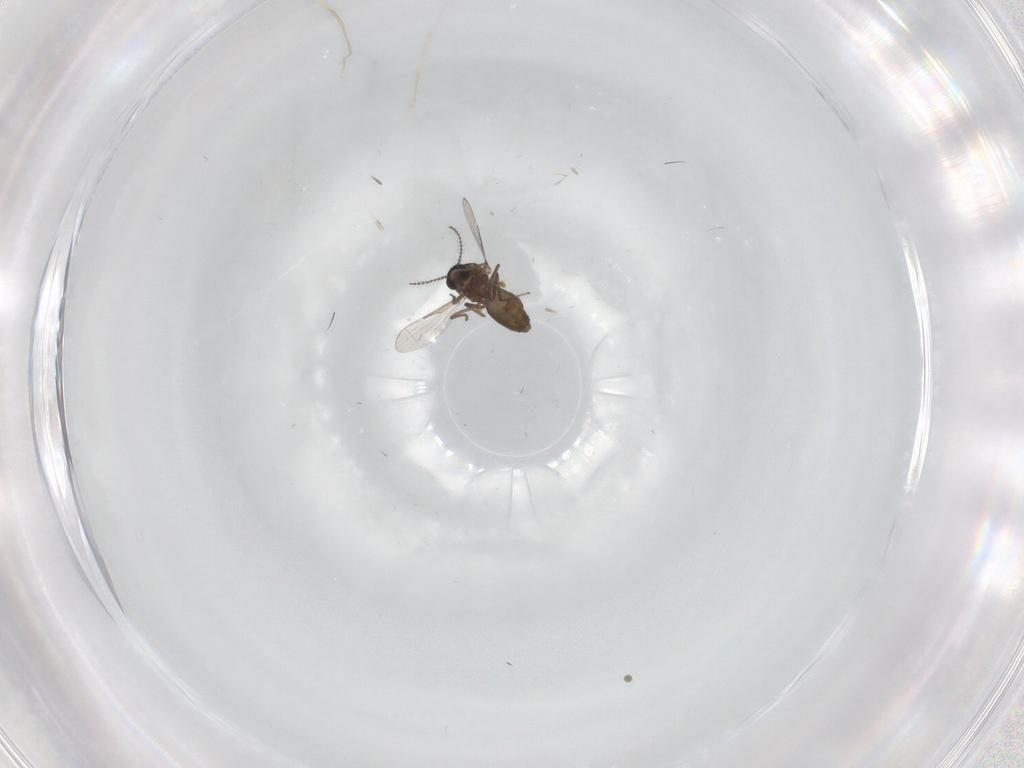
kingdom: Animalia
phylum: Arthropoda
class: Insecta
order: Diptera
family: Ceratopogonidae
